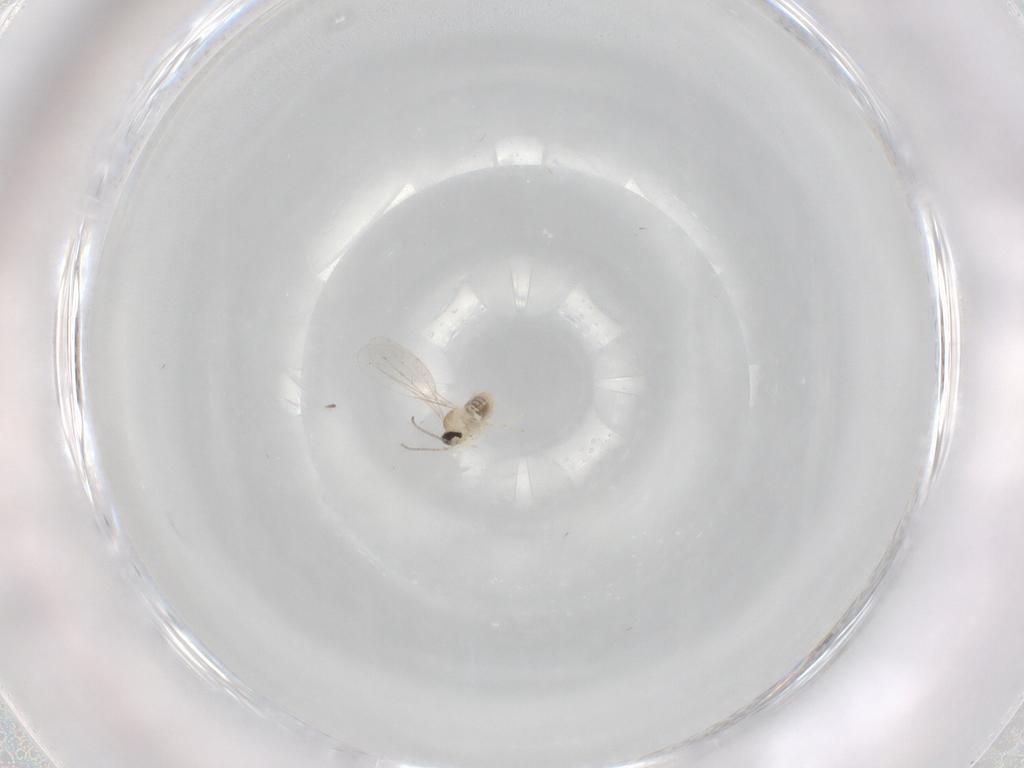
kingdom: Animalia
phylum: Arthropoda
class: Insecta
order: Diptera
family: Cecidomyiidae
